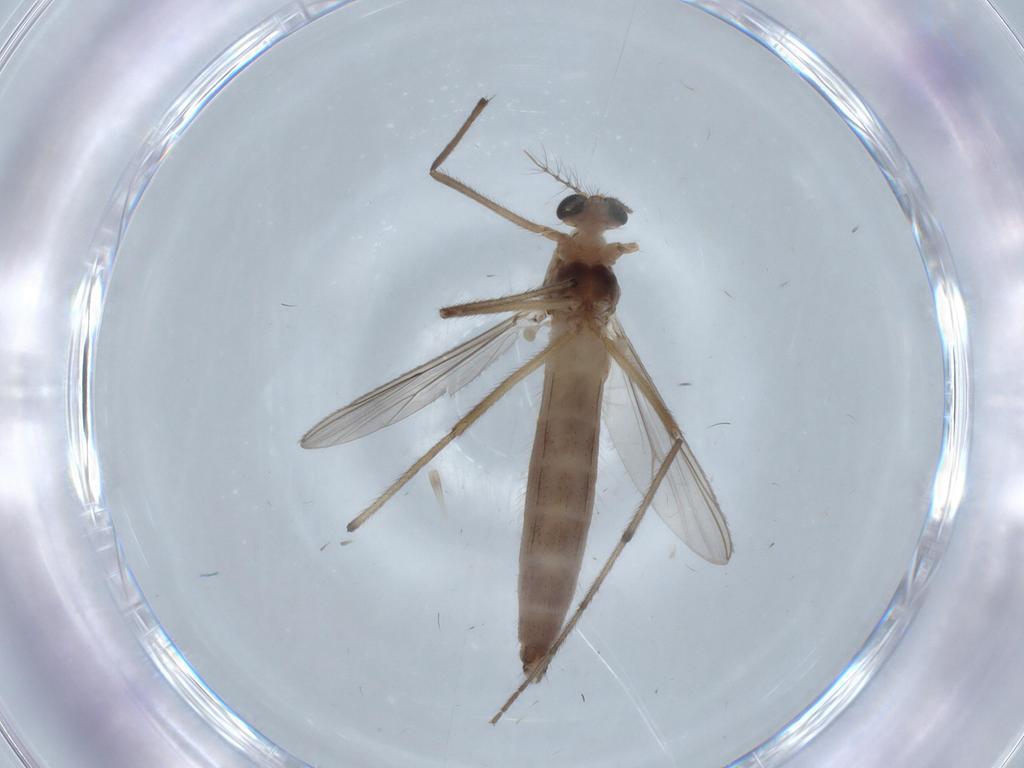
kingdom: Animalia
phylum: Arthropoda
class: Insecta
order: Diptera
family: Chironomidae
